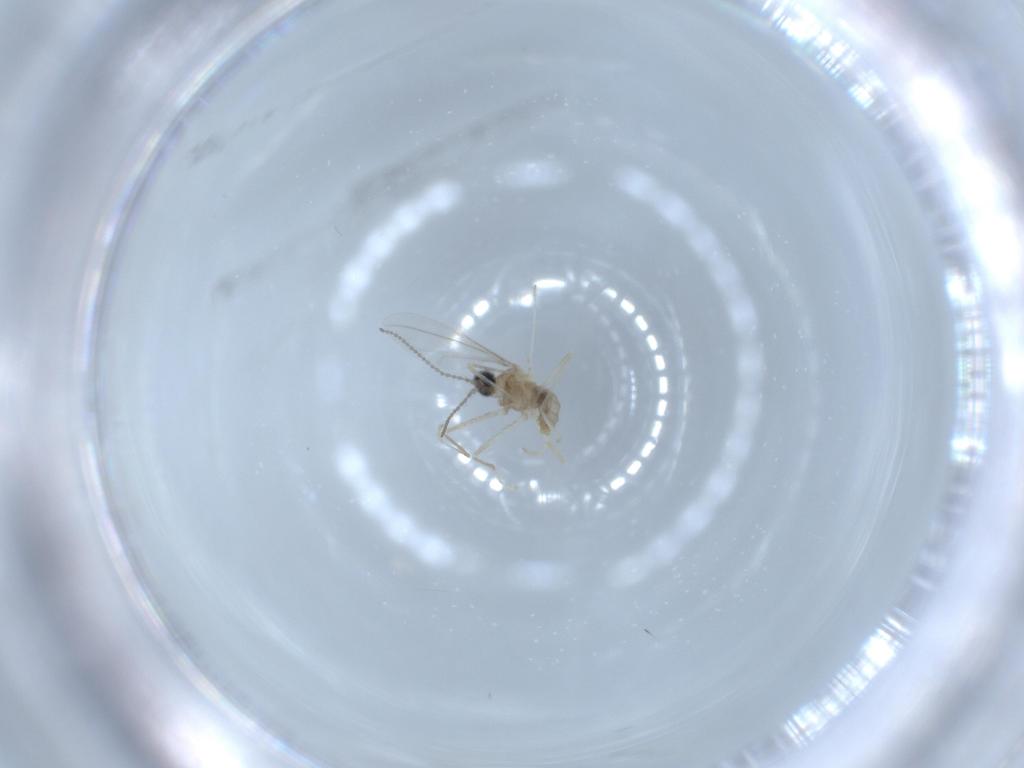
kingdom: Animalia
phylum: Arthropoda
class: Insecta
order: Diptera
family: Cecidomyiidae
